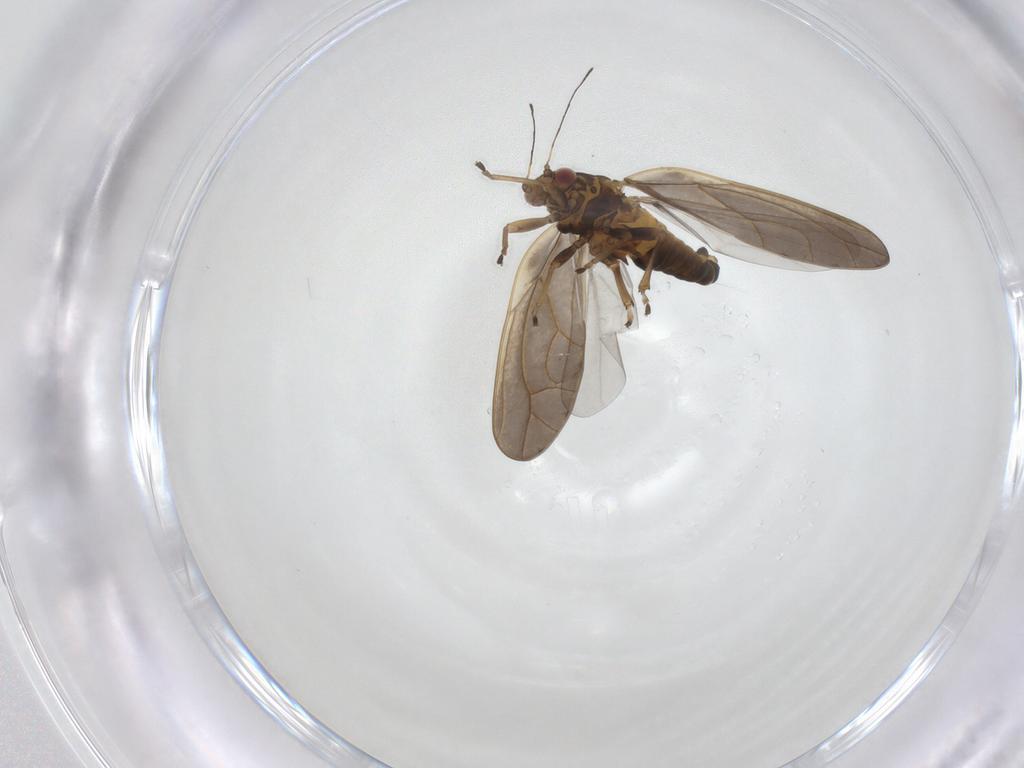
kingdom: Animalia
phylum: Arthropoda
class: Insecta
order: Hemiptera
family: Triozidae
